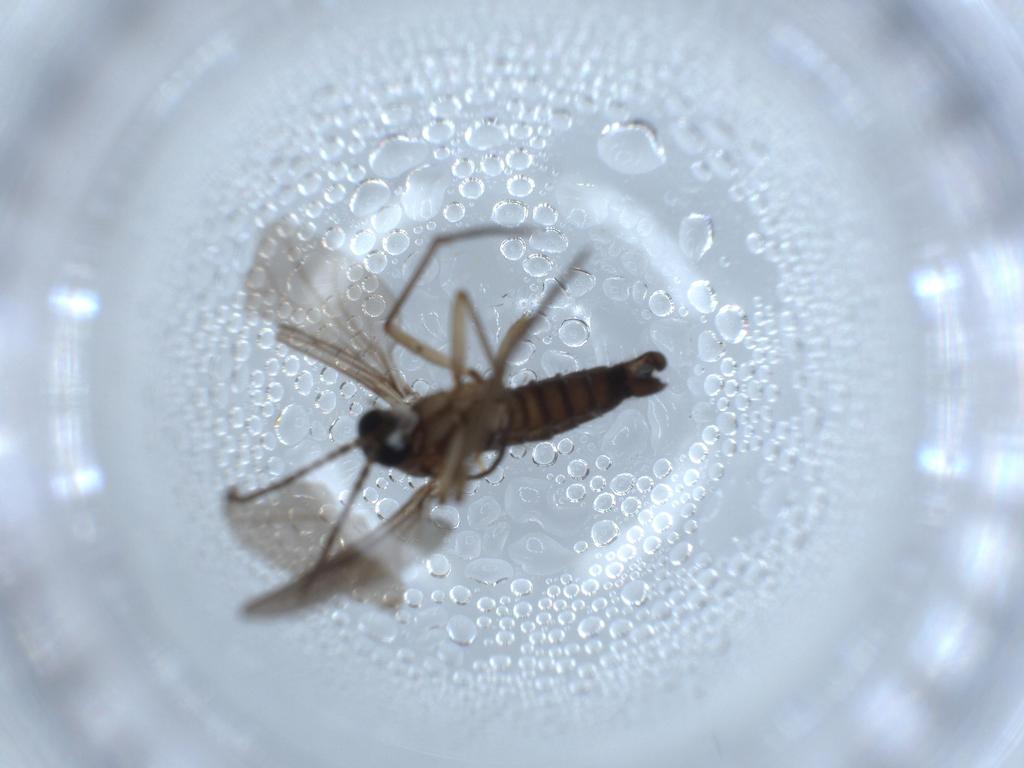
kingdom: Animalia
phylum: Arthropoda
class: Insecta
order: Diptera
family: Sciaridae
